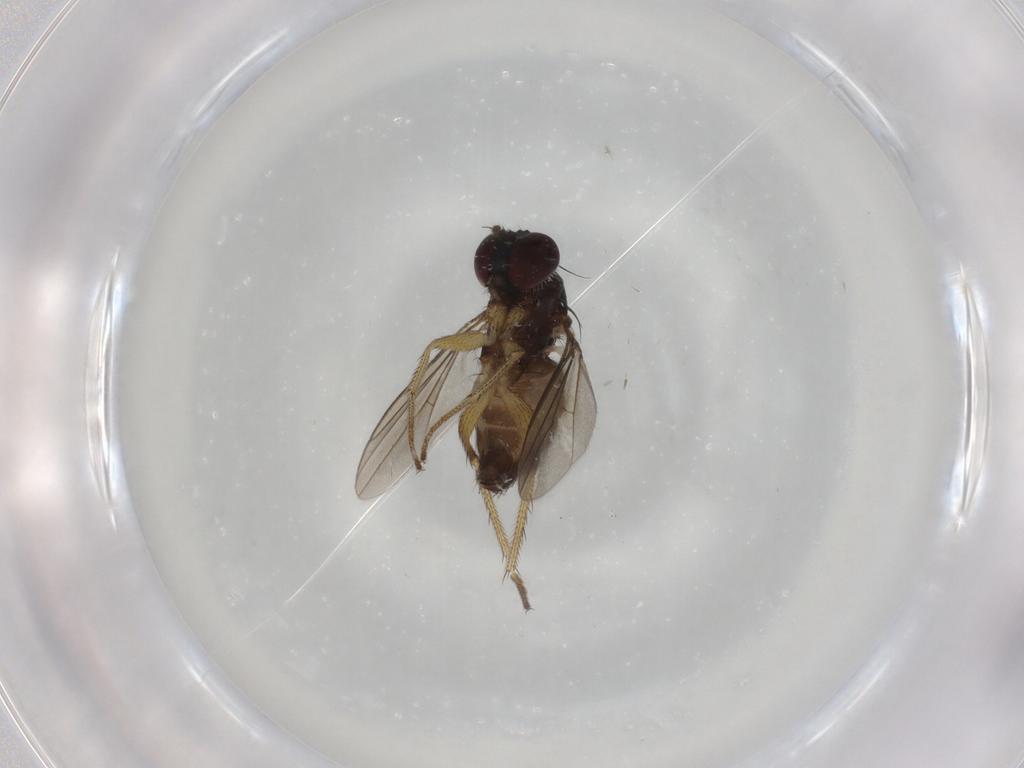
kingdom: Animalia
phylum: Arthropoda
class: Insecta
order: Diptera
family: Dolichopodidae
